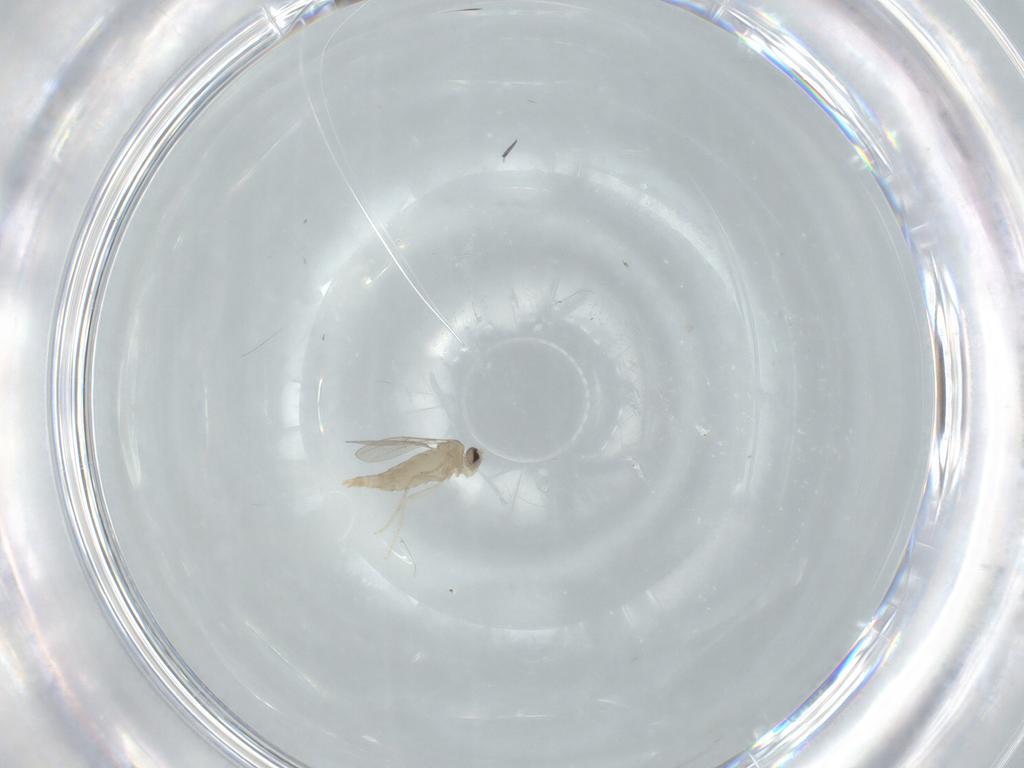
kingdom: Animalia
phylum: Arthropoda
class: Insecta
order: Diptera
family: Cecidomyiidae
